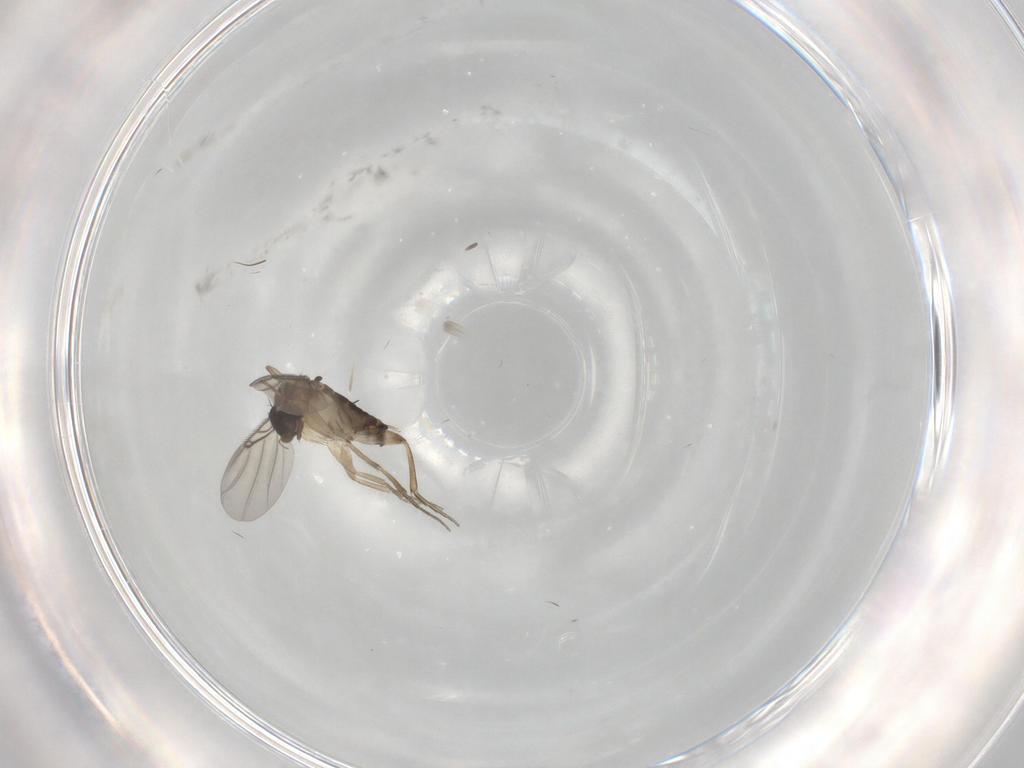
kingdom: Animalia
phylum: Arthropoda
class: Insecta
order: Diptera
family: Phoridae
